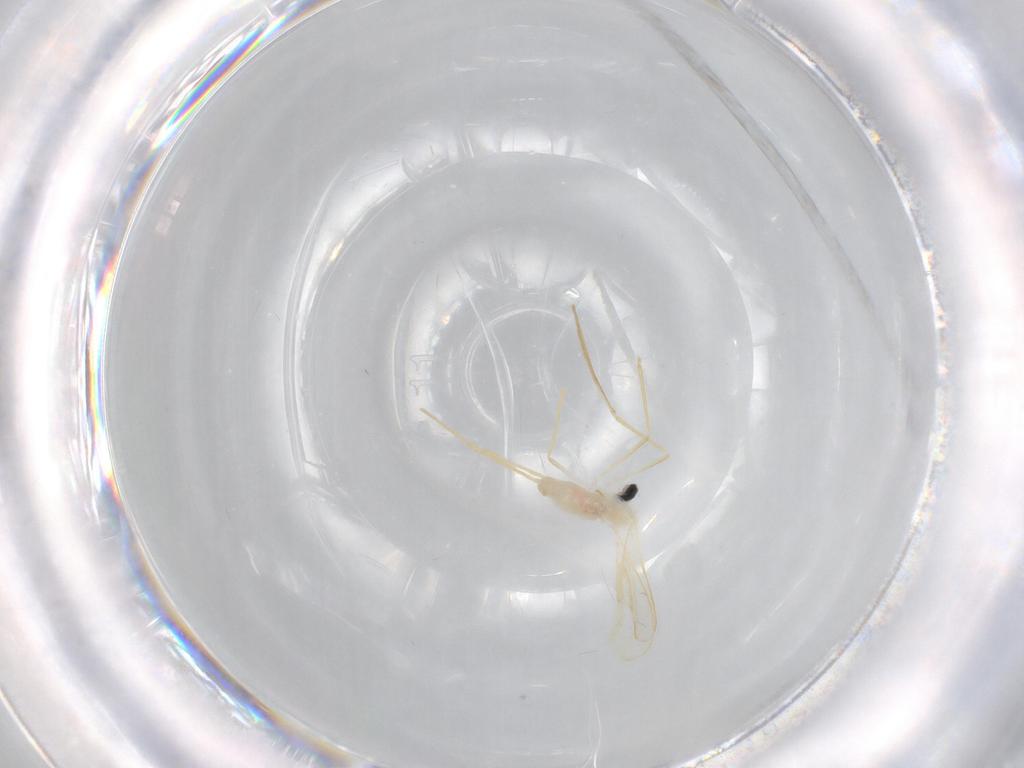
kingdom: Animalia
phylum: Arthropoda
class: Insecta
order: Diptera
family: Cecidomyiidae
